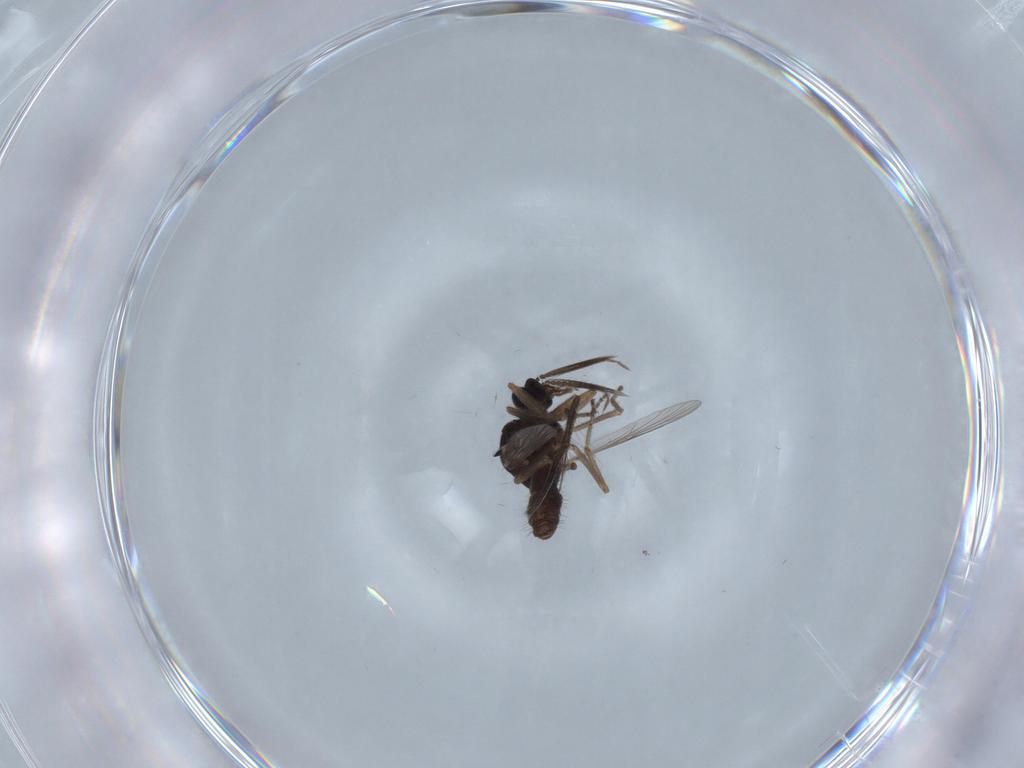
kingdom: Animalia
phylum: Arthropoda
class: Insecta
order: Diptera
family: Ceratopogonidae
